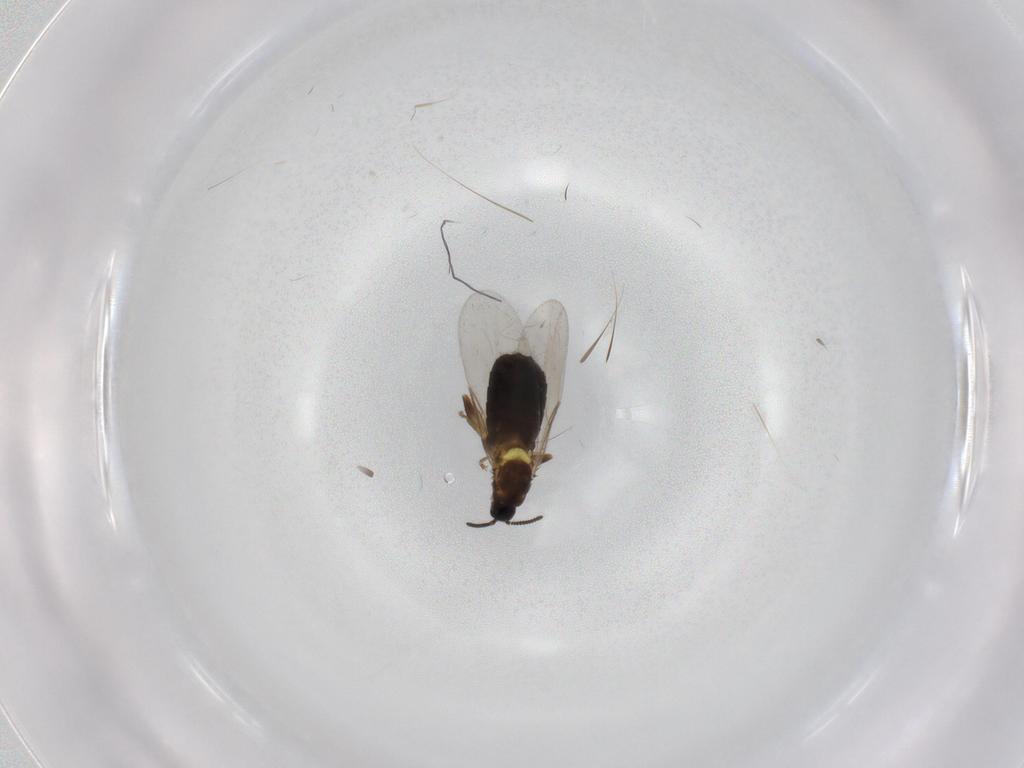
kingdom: Animalia
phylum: Arthropoda
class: Insecta
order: Diptera
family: Scatopsidae
